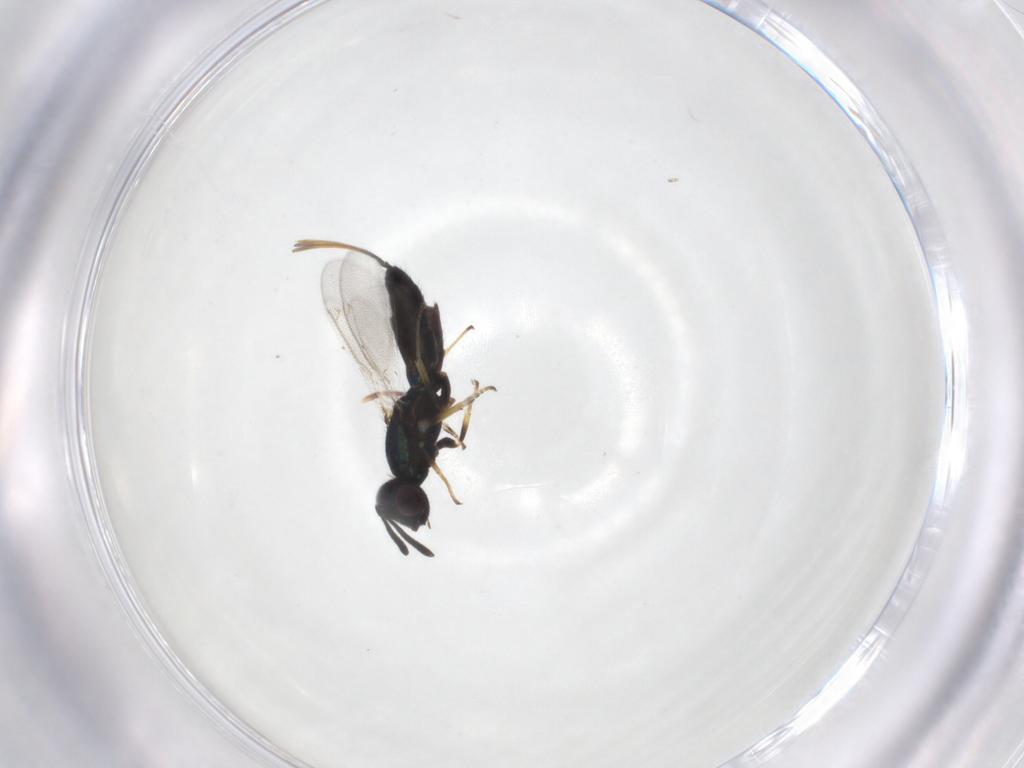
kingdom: Animalia
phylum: Arthropoda
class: Insecta
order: Hymenoptera
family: Eupelmidae
